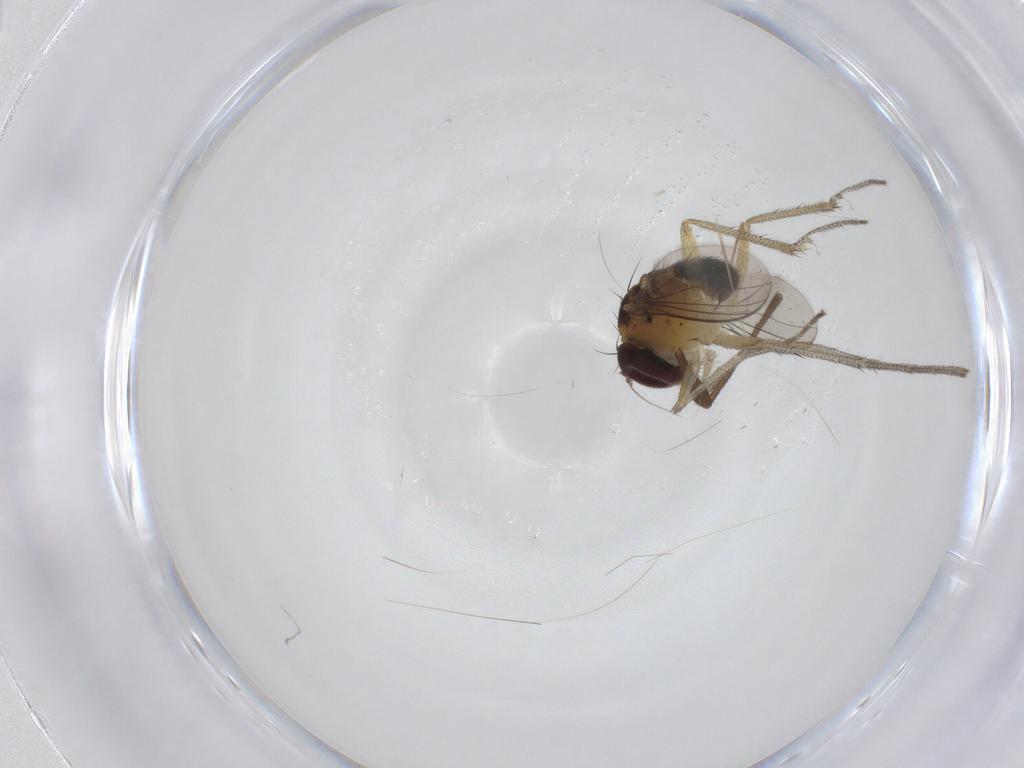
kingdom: Animalia
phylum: Arthropoda
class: Insecta
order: Diptera
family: Dolichopodidae
